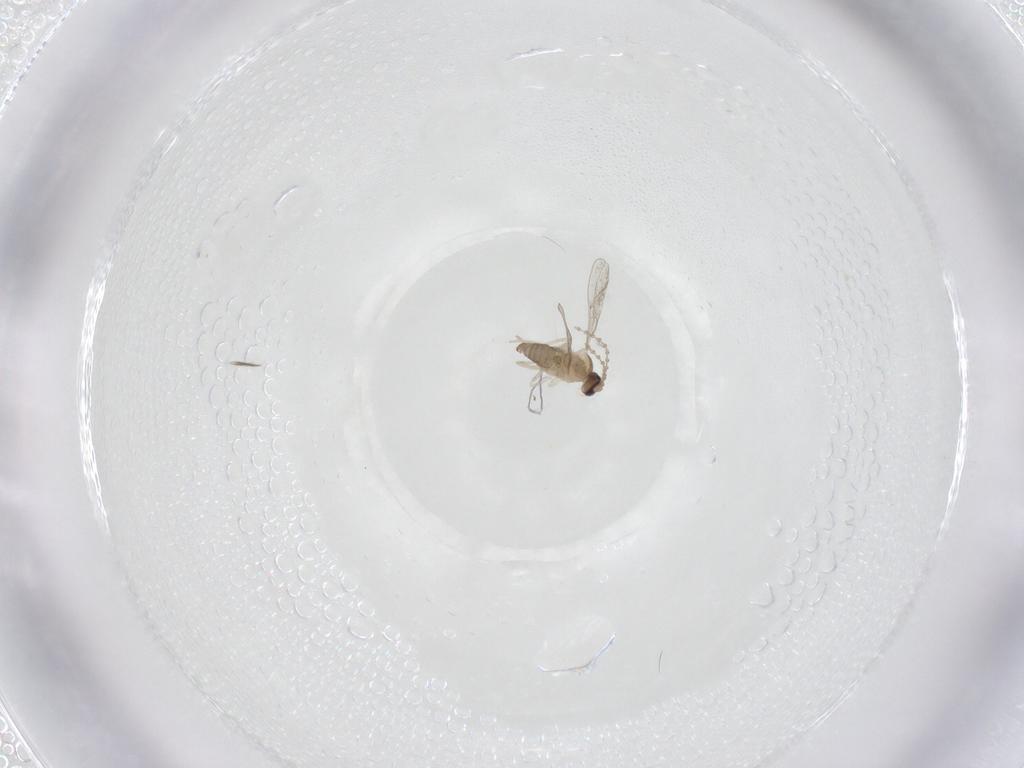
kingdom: Animalia
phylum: Arthropoda
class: Insecta
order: Diptera
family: Cecidomyiidae
